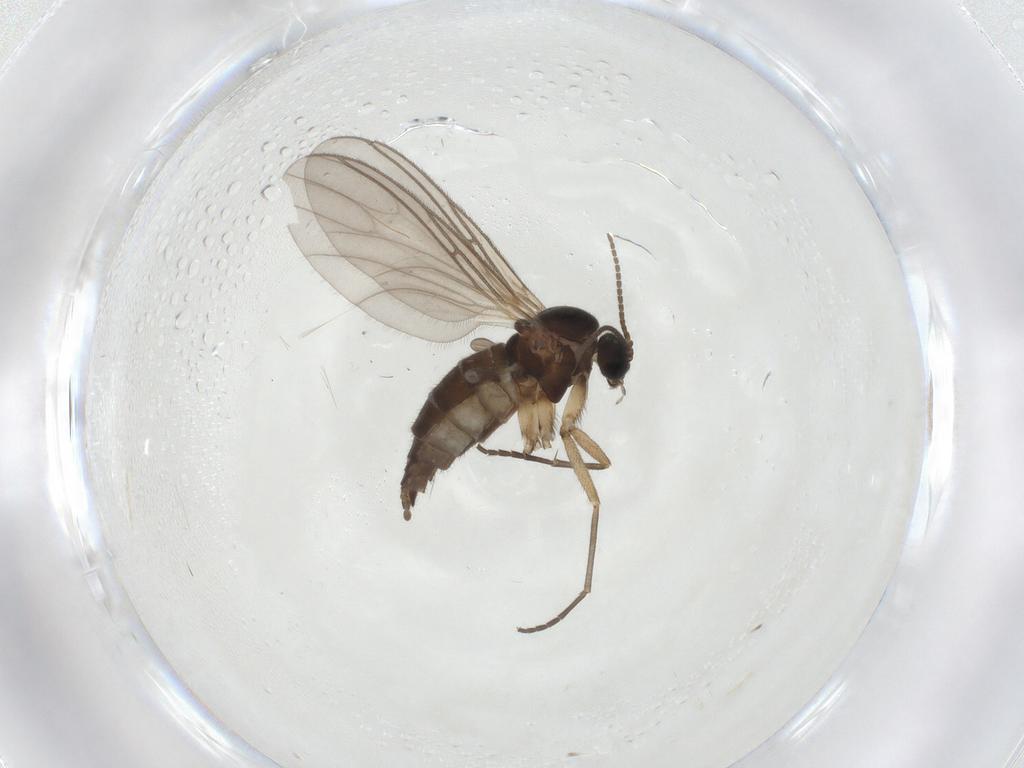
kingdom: Animalia
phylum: Arthropoda
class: Insecta
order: Diptera
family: Sciaridae
